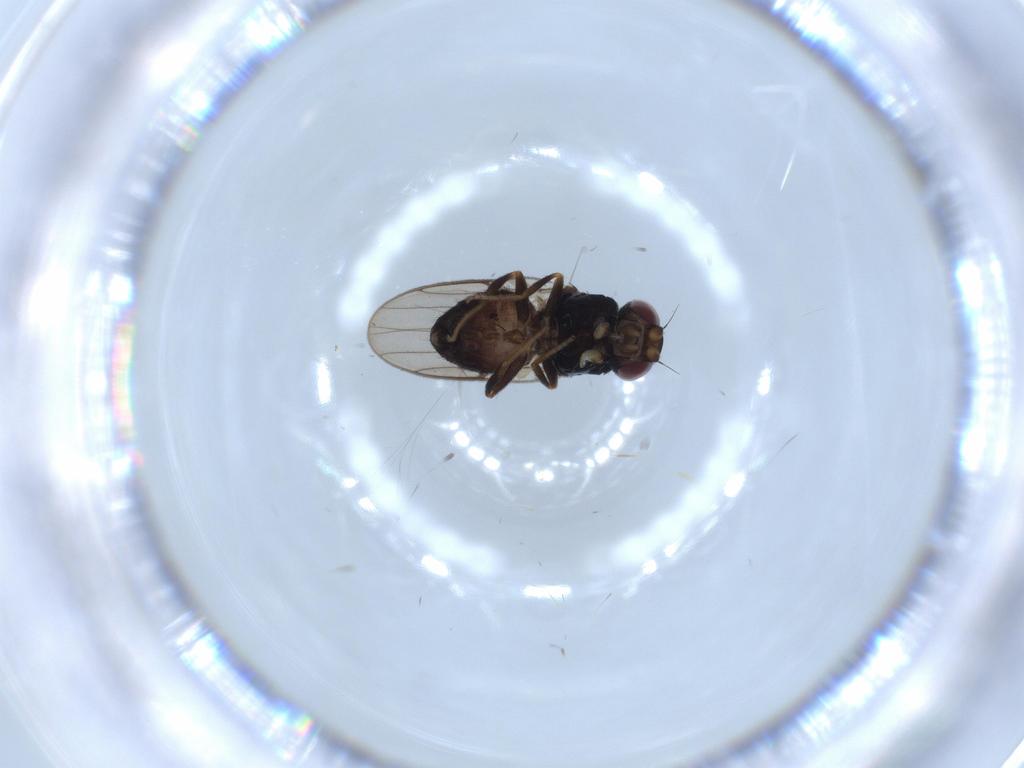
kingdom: Animalia
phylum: Arthropoda
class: Insecta
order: Diptera
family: Chloropidae
